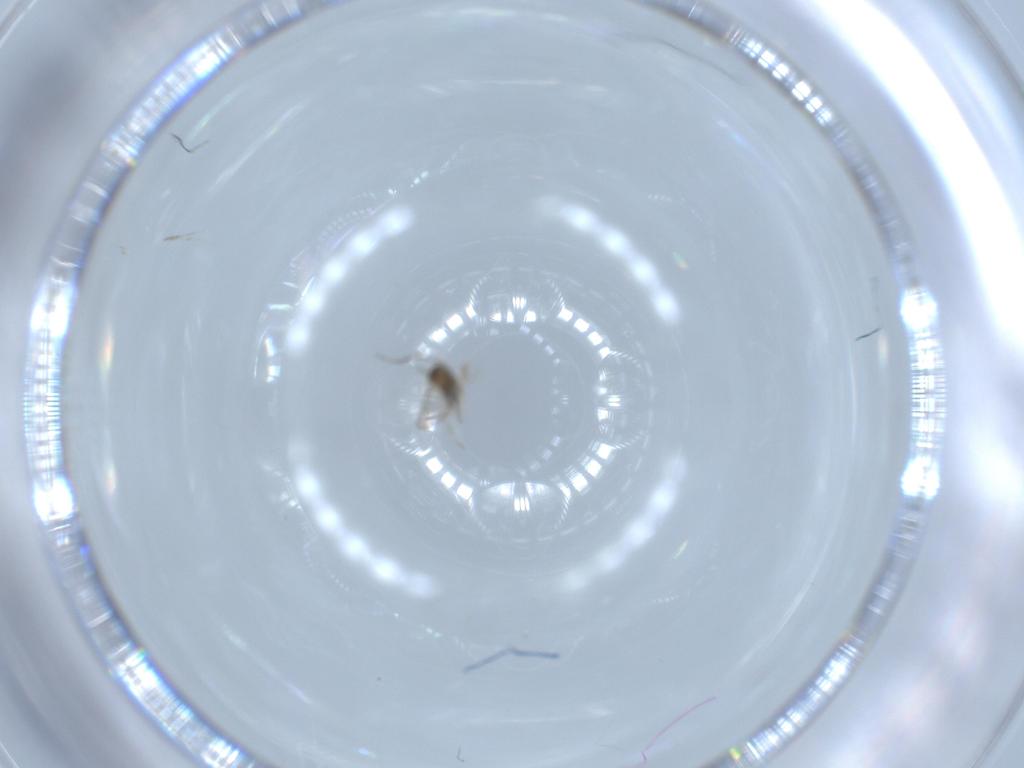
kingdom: Animalia
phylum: Arthropoda
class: Insecta
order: Diptera
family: Cecidomyiidae
